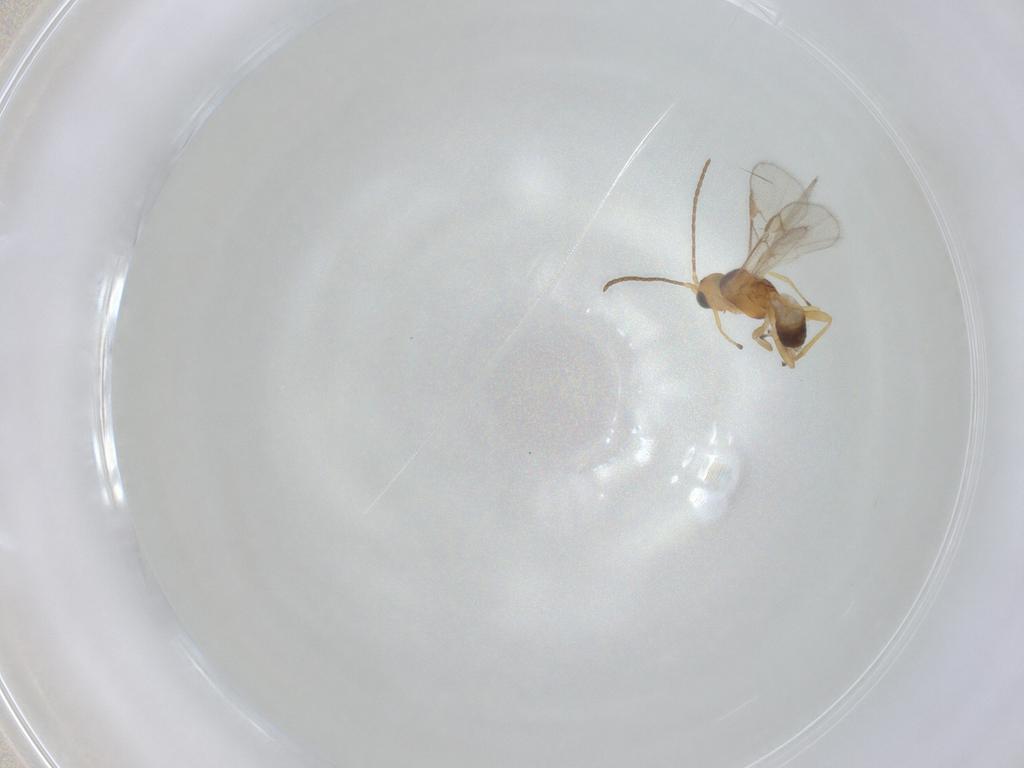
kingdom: Animalia
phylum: Arthropoda
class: Insecta
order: Hymenoptera
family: Braconidae
